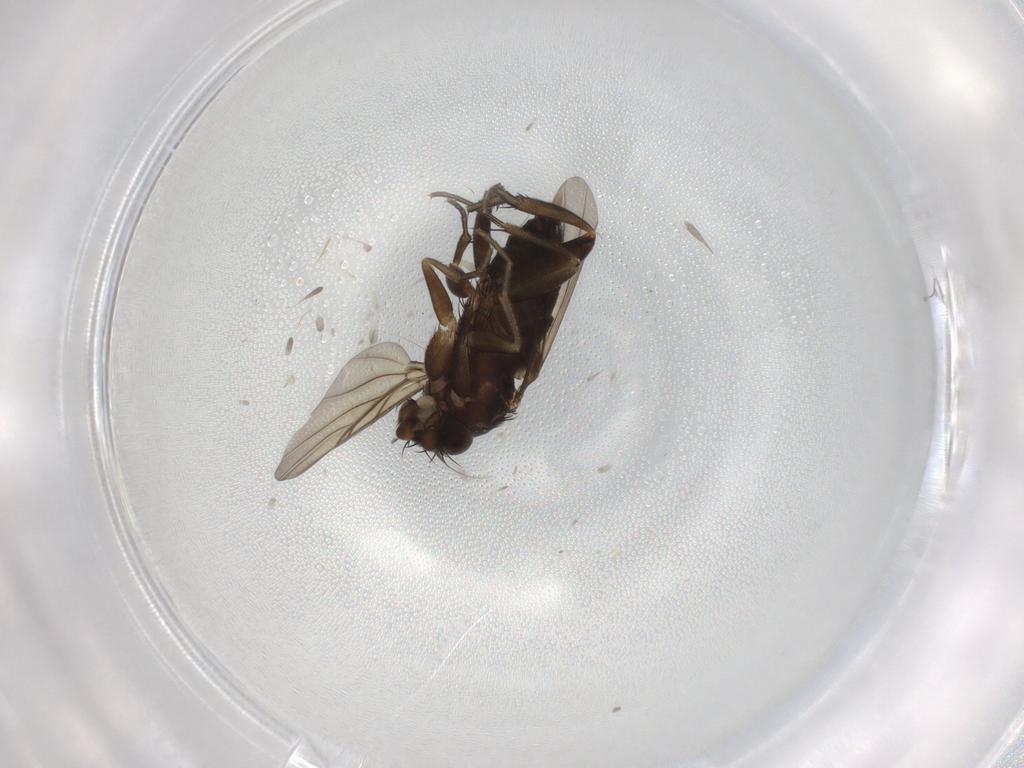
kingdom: Animalia
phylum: Arthropoda
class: Insecta
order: Diptera
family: Phoridae
